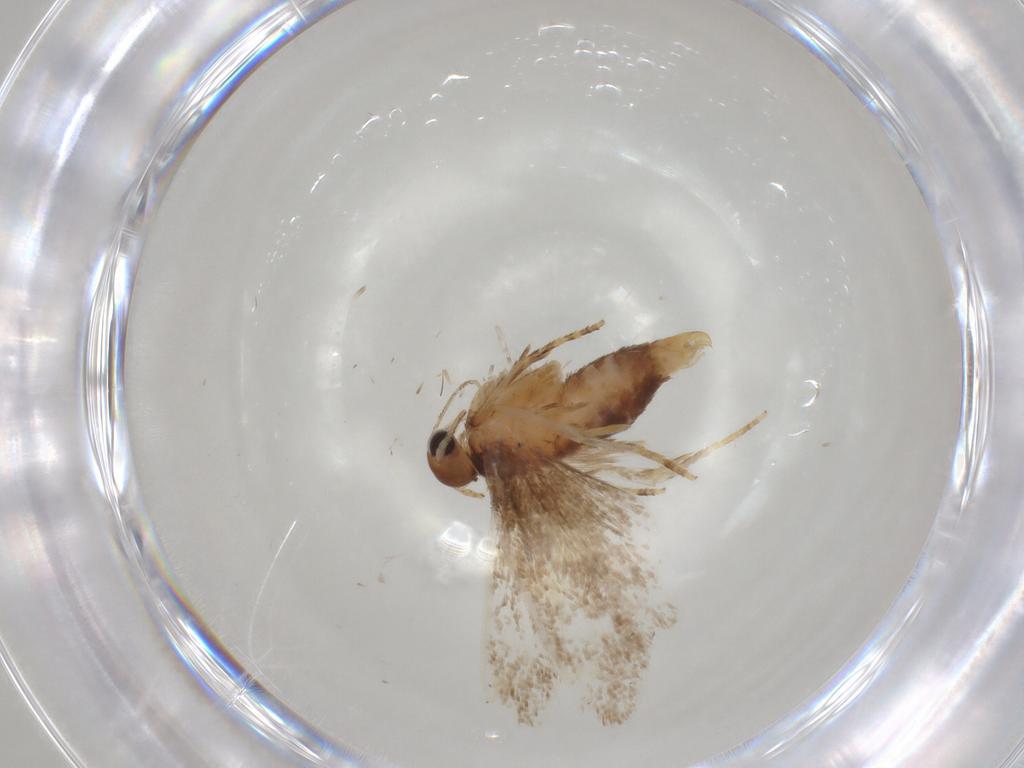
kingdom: Animalia
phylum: Arthropoda
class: Insecta
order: Lepidoptera
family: Oecophoridae
